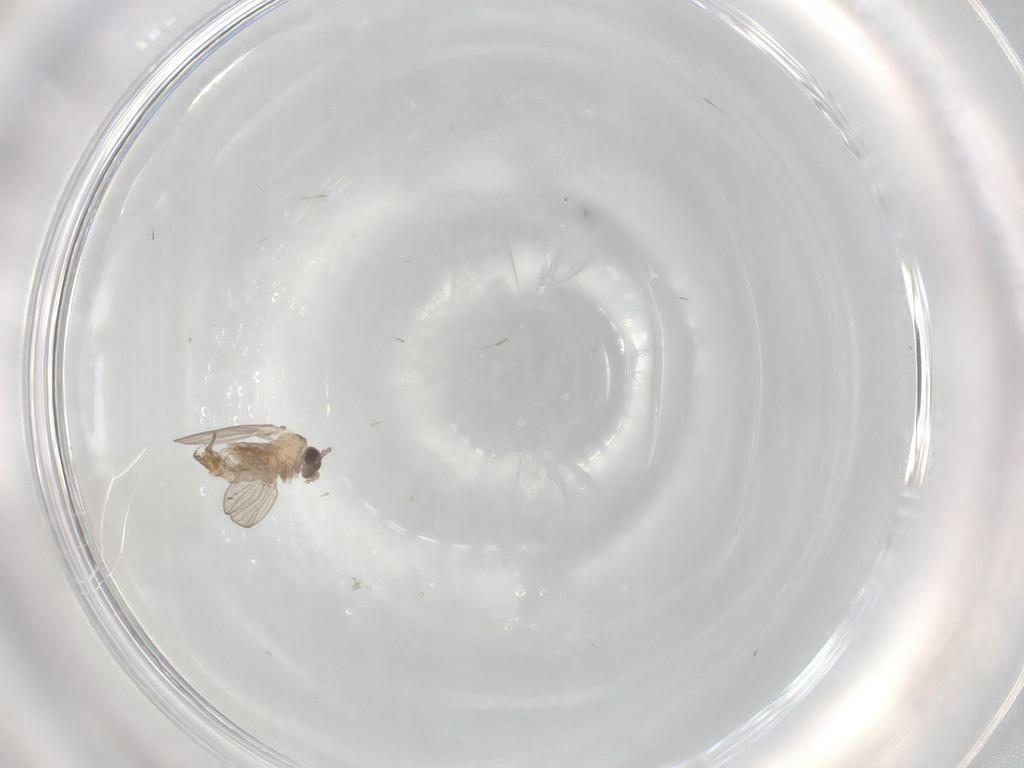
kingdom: Animalia
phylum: Arthropoda
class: Insecta
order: Diptera
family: Psychodidae
